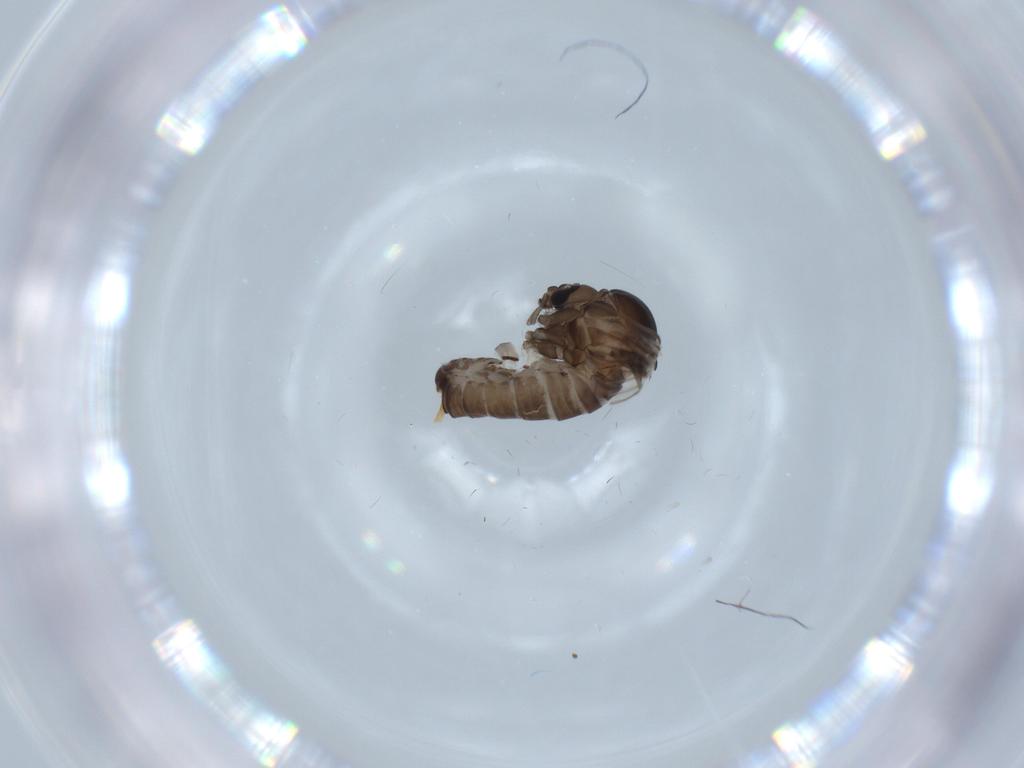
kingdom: Animalia
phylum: Arthropoda
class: Insecta
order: Diptera
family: Psychodidae
